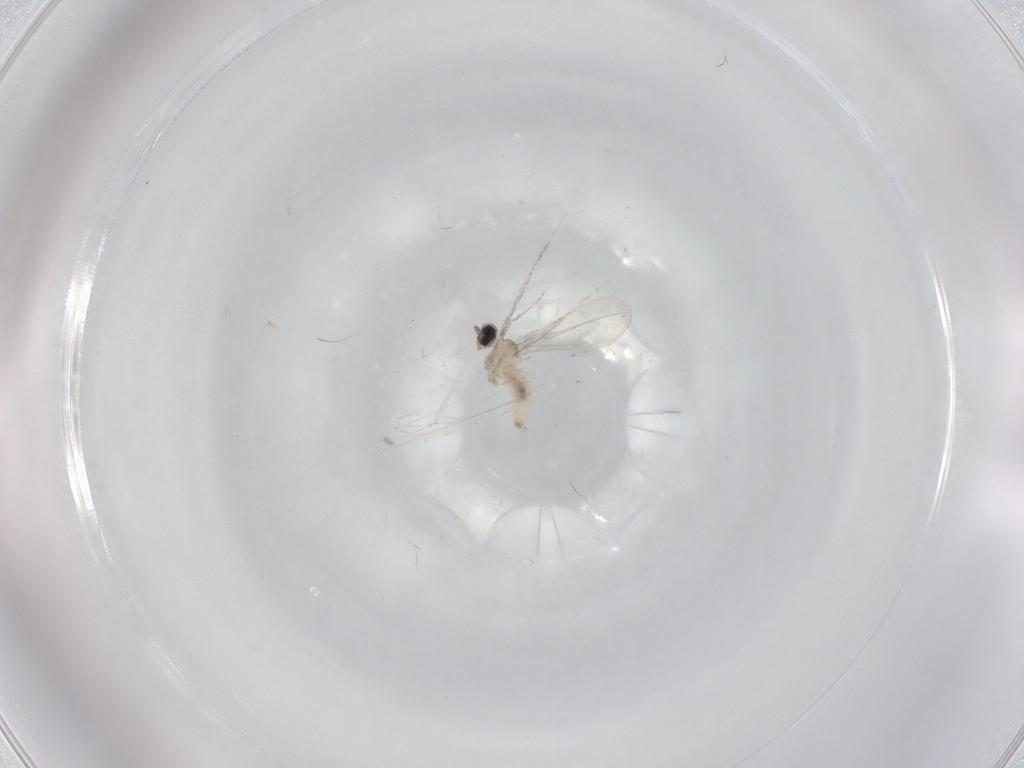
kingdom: Animalia
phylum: Arthropoda
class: Insecta
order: Diptera
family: Cecidomyiidae
